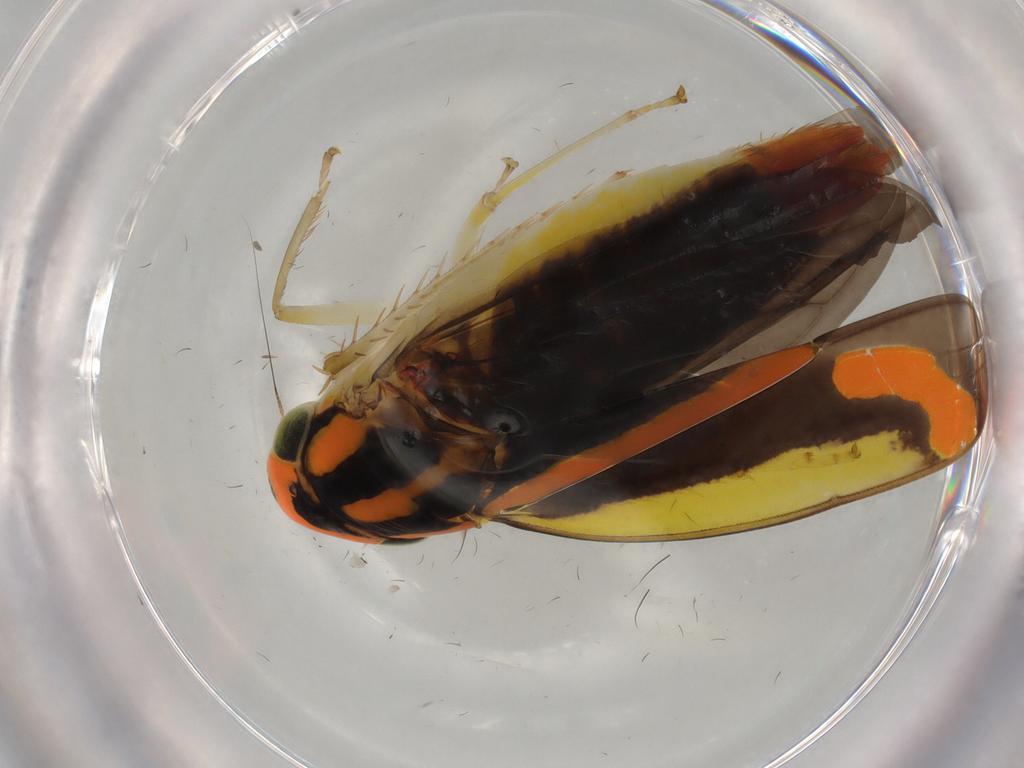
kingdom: Animalia
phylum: Arthropoda
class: Insecta
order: Hemiptera
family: Cicadellidae
